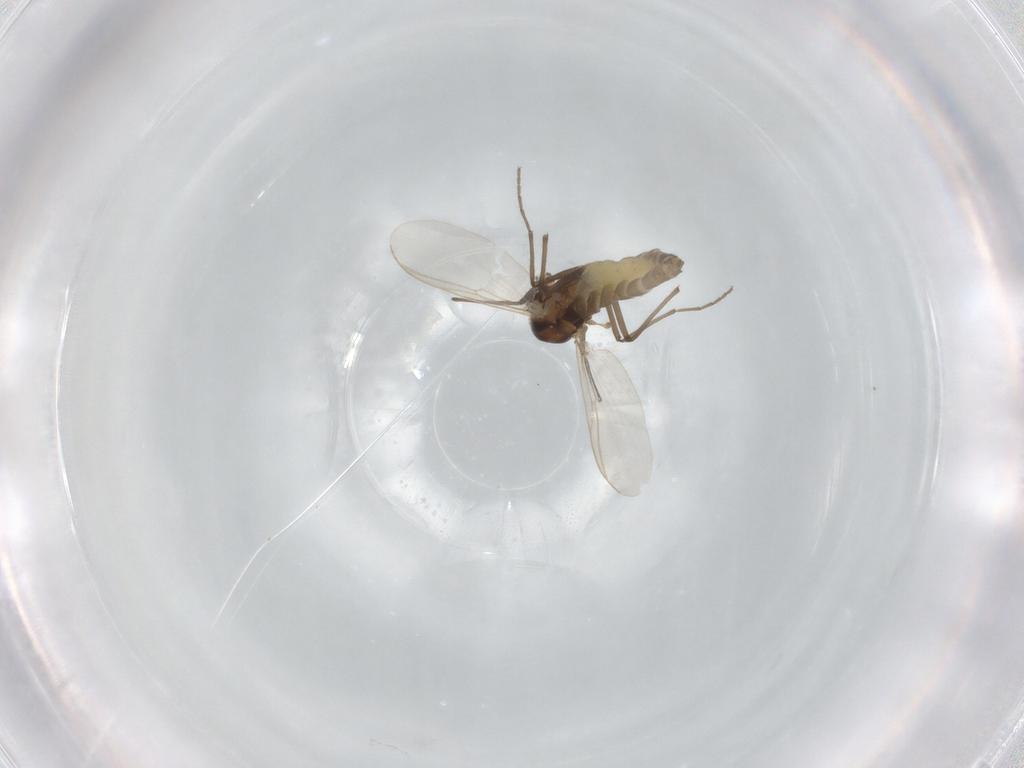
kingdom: Animalia
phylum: Arthropoda
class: Insecta
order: Diptera
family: Chironomidae
